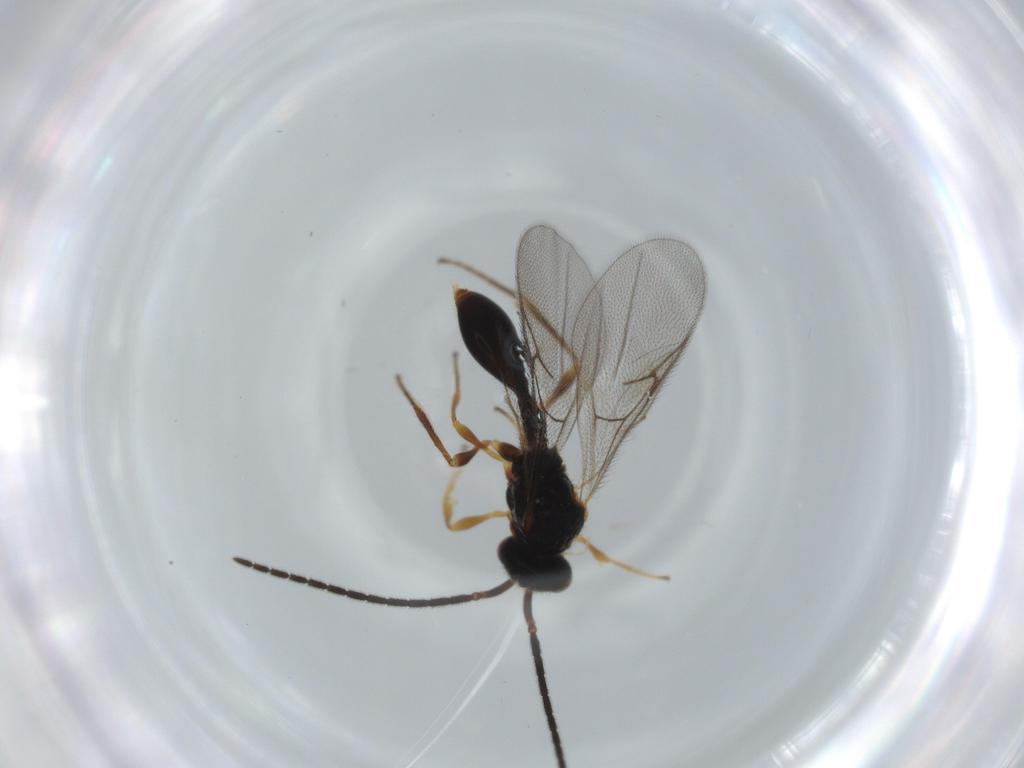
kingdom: Animalia
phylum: Arthropoda
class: Insecta
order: Hymenoptera
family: Diapriidae
